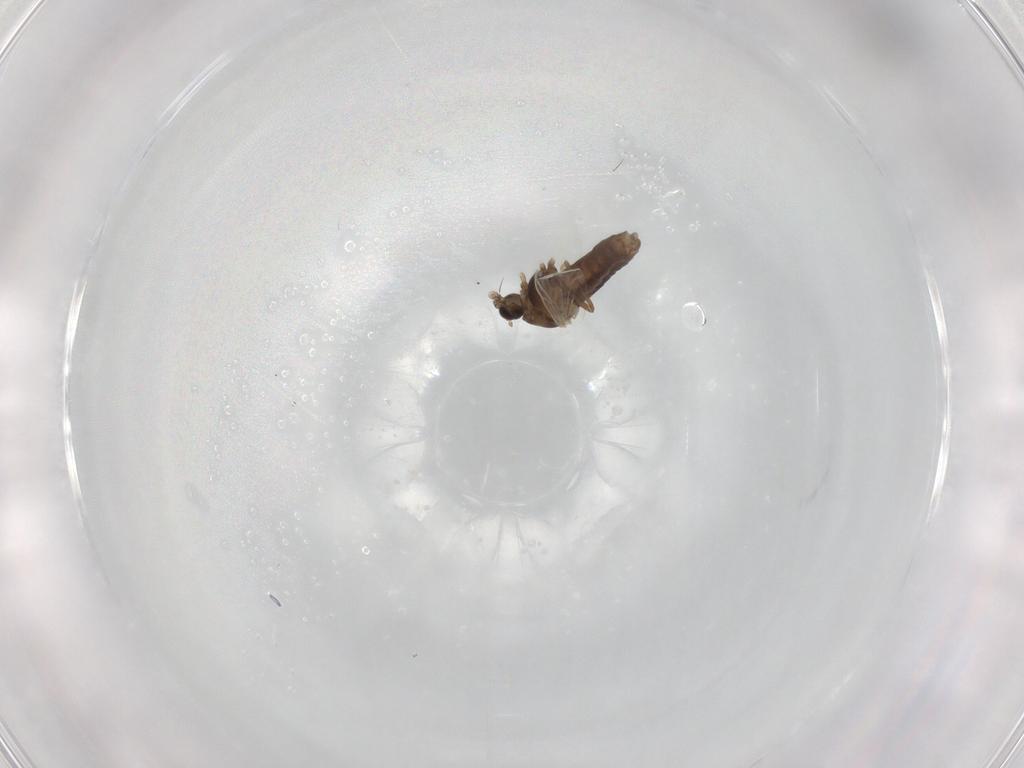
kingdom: Animalia
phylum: Arthropoda
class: Insecta
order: Diptera
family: Chironomidae
